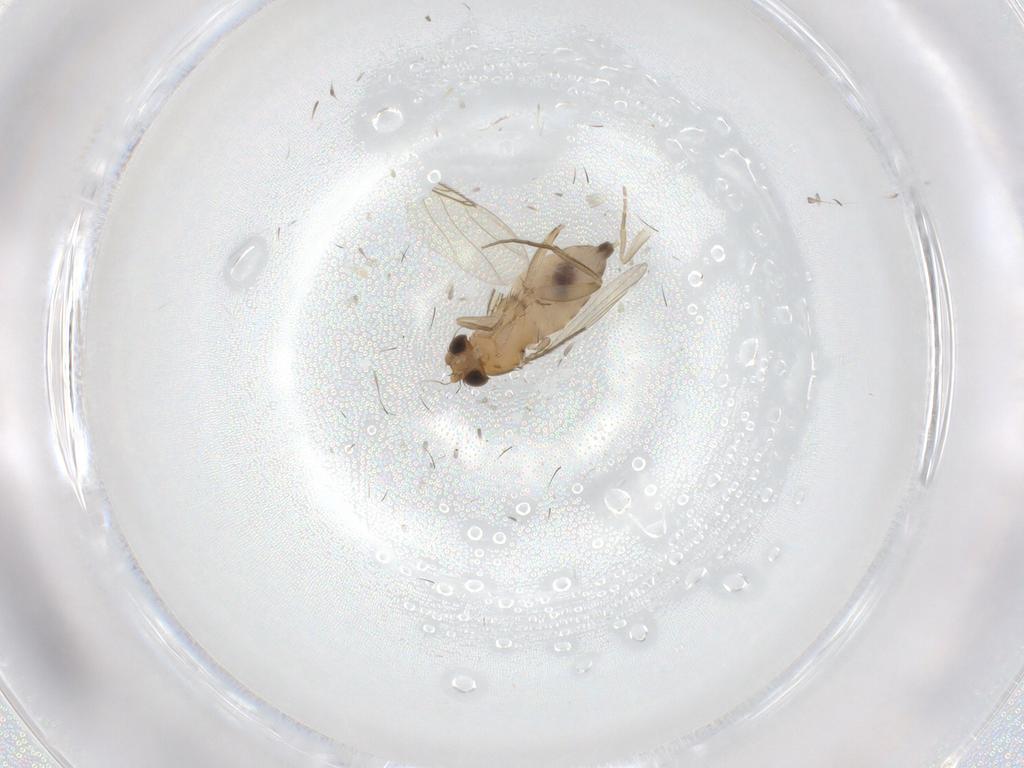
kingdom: Animalia
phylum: Arthropoda
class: Insecta
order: Diptera
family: Phoridae
